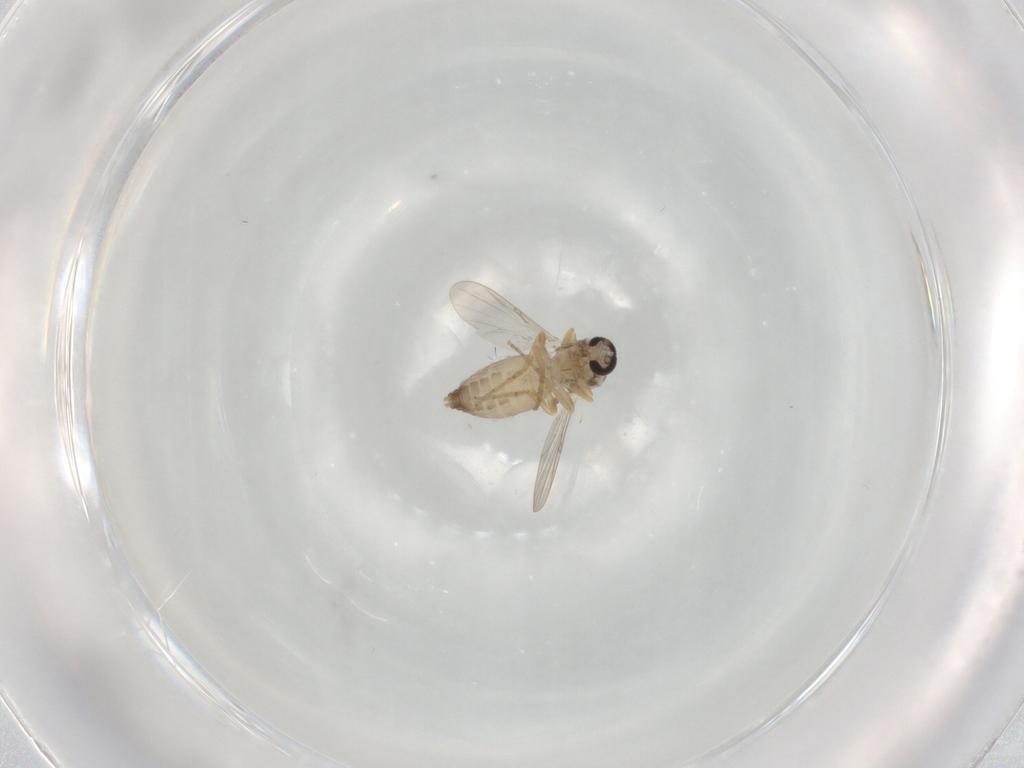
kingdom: Animalia
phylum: Arthropoda
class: Insecta
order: Diptera
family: Ceratopogonidae
